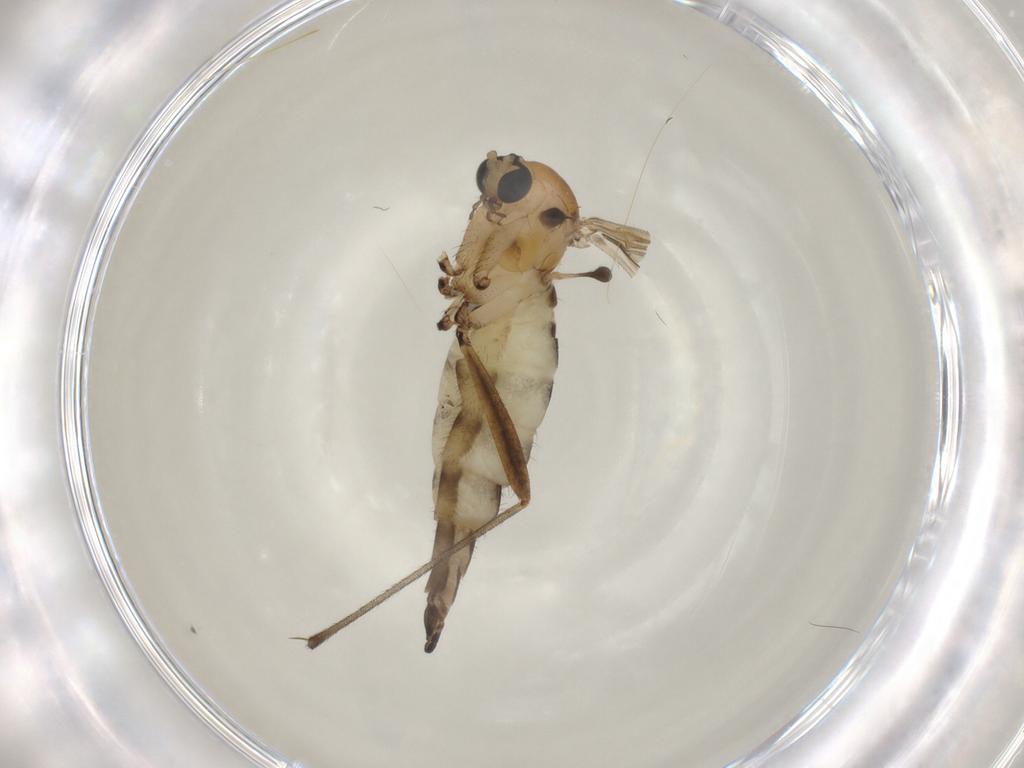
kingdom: Animalia
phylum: Arthropoda
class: Insecta
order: Diptera
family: Sciaridae
